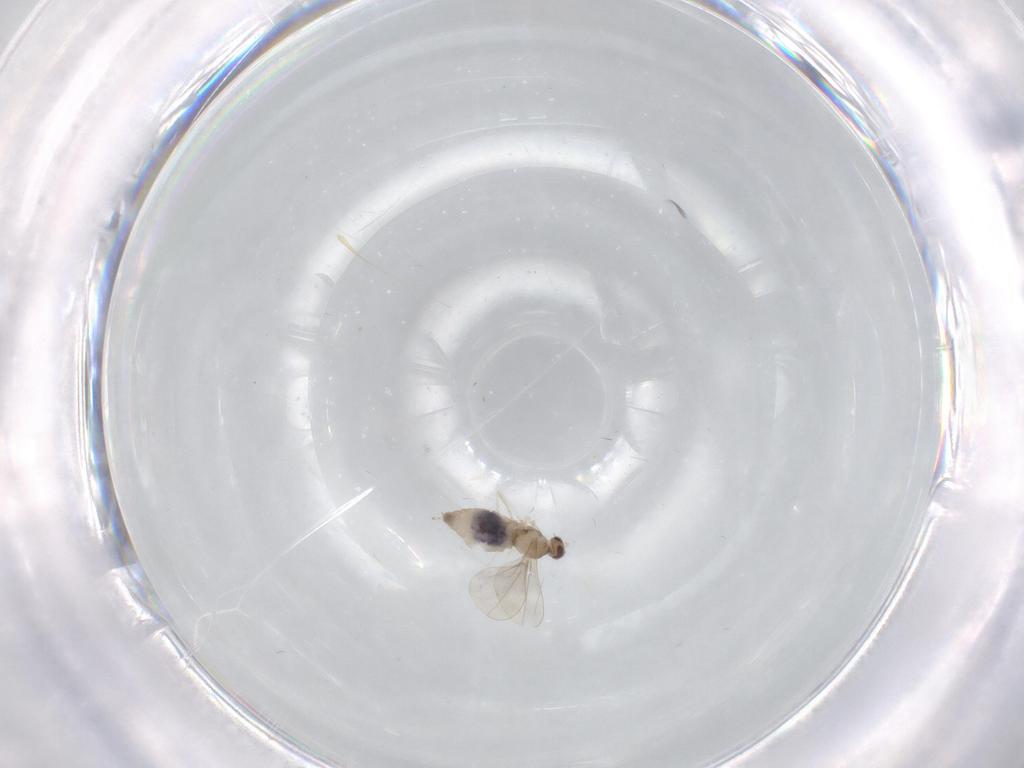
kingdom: Animalia
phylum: Arthropoda
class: Insecta
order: Diptera
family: Cecidomyiidae
